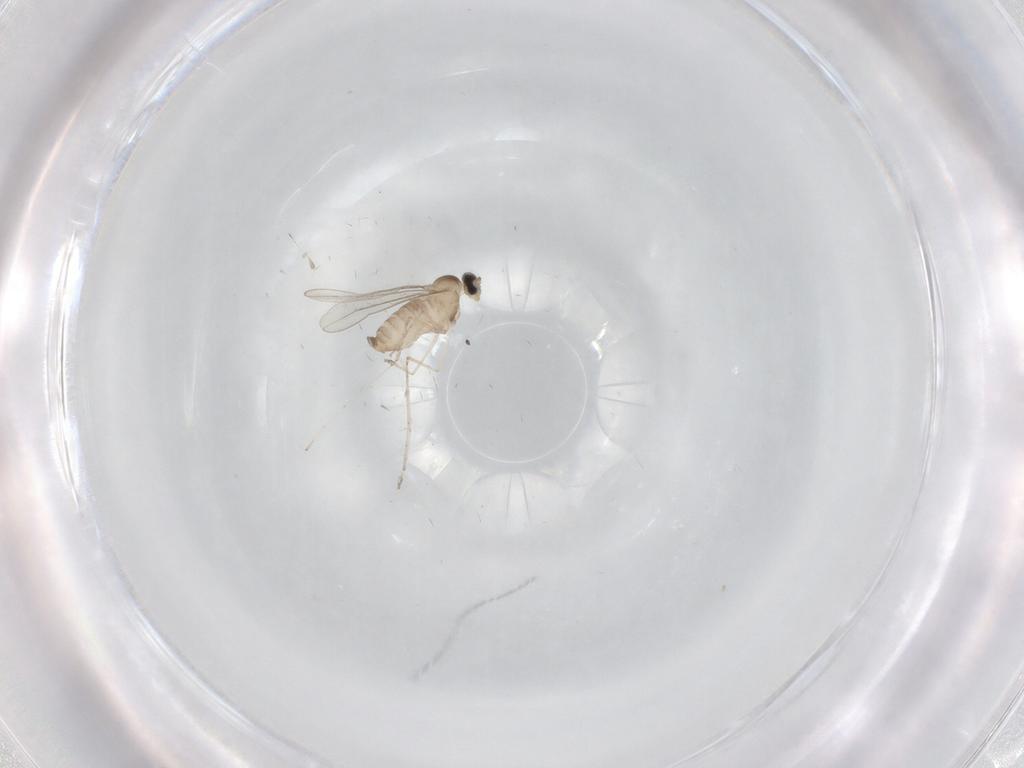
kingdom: Animalia
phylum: Arthropoda
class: Insecta
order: Diptera
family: Cecidomyiidae
